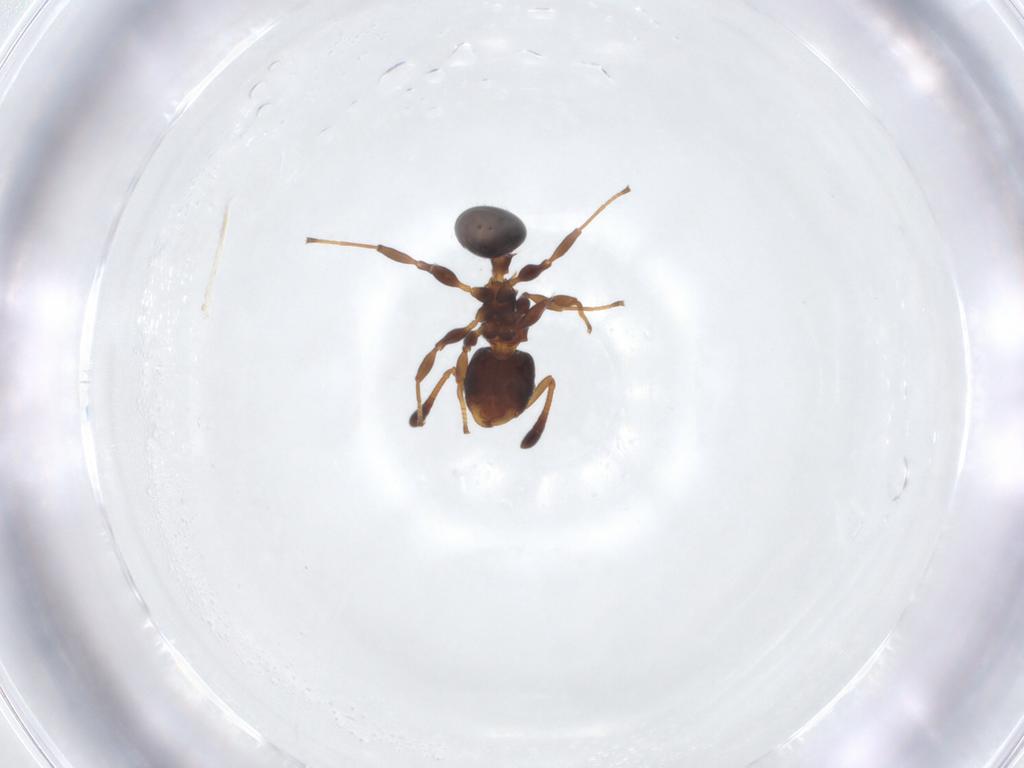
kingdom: Animalia
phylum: Arthropoda
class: Insecta
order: Hymenoptera
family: Formicidae
